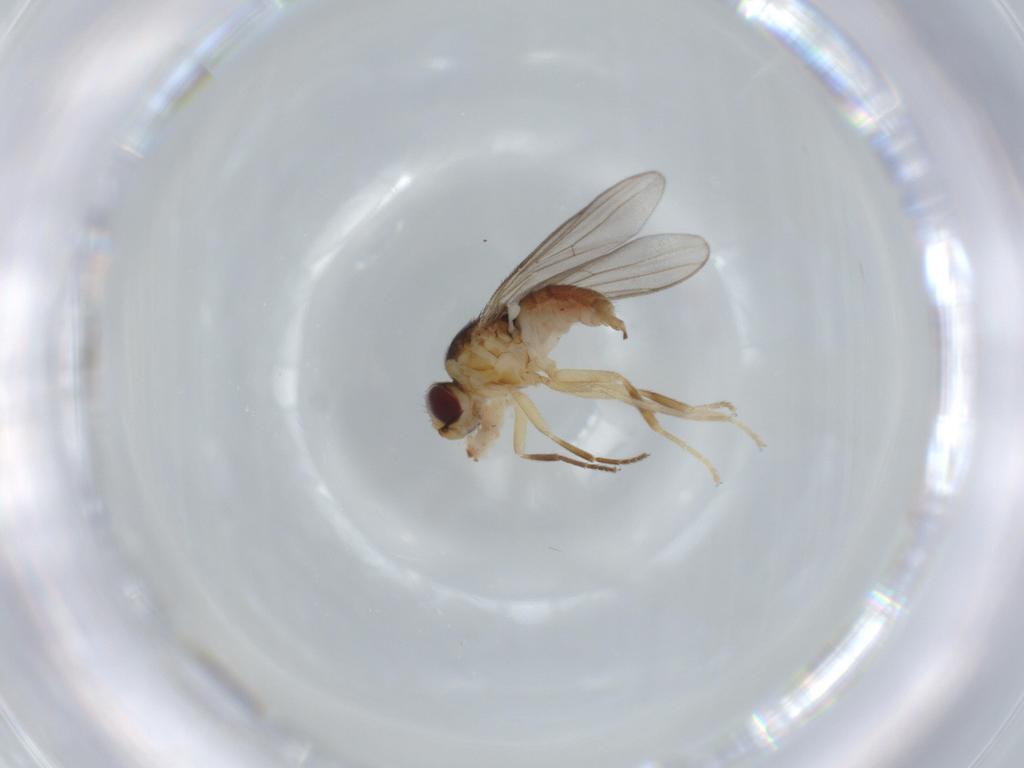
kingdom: Animalia
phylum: Arthropoda
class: Insecta
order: Diptera
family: Chloropidae
